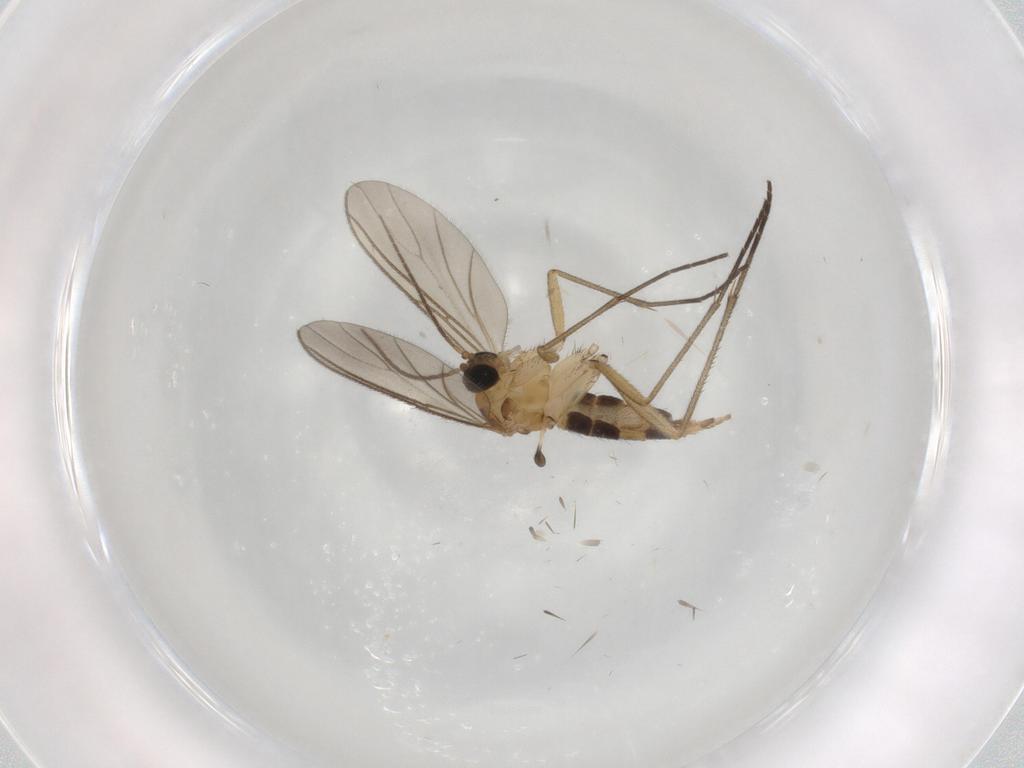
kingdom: Animalia
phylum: Arthropoda
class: Insecta
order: Diptera
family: Sciaridae
